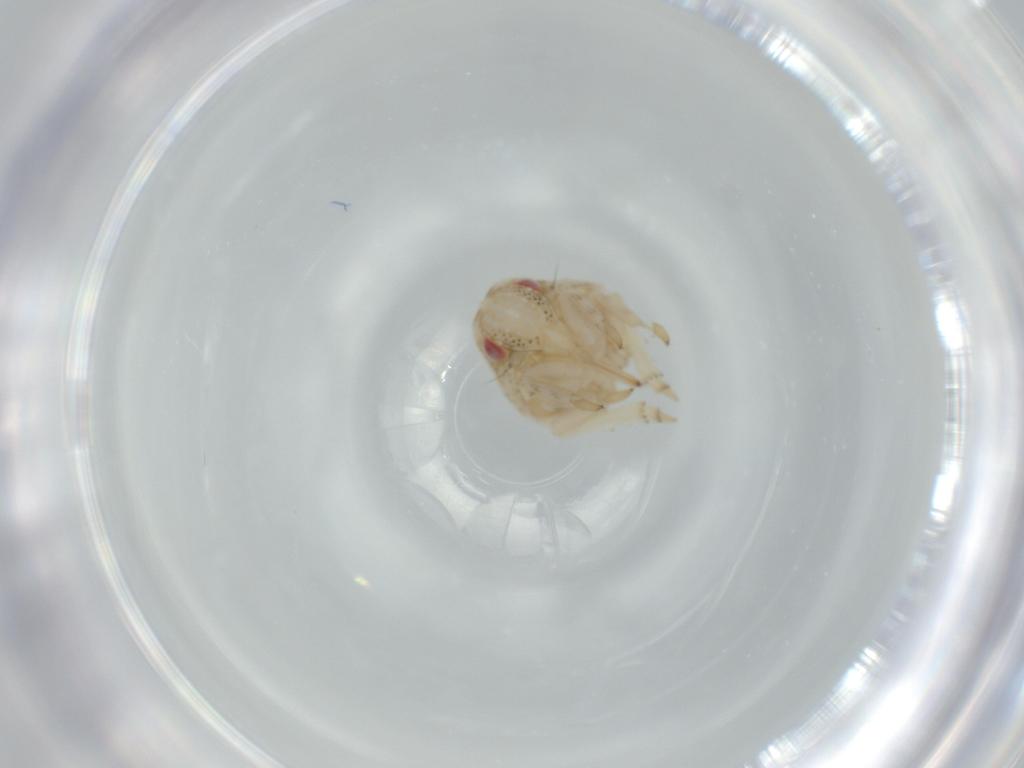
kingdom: Animalia
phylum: Arthropoda
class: Insecta
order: Hemiptera
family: Acanaloniidae
